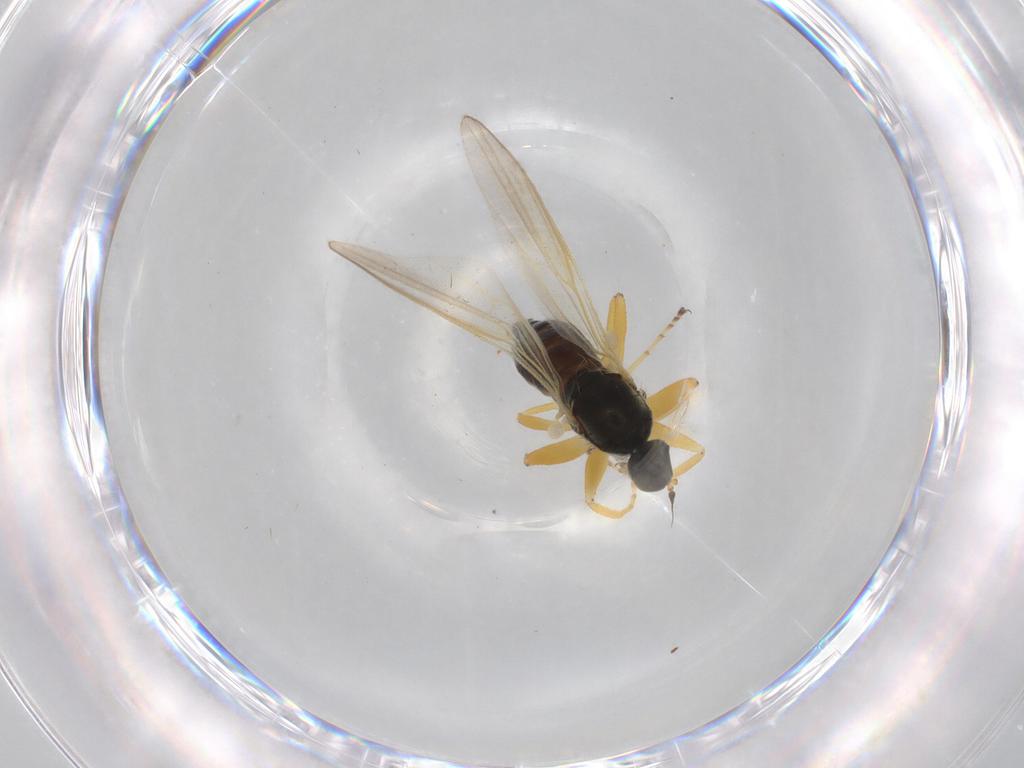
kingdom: Animalia
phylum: Arthropoda
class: Insecta
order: Diptera
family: Hybotidae
